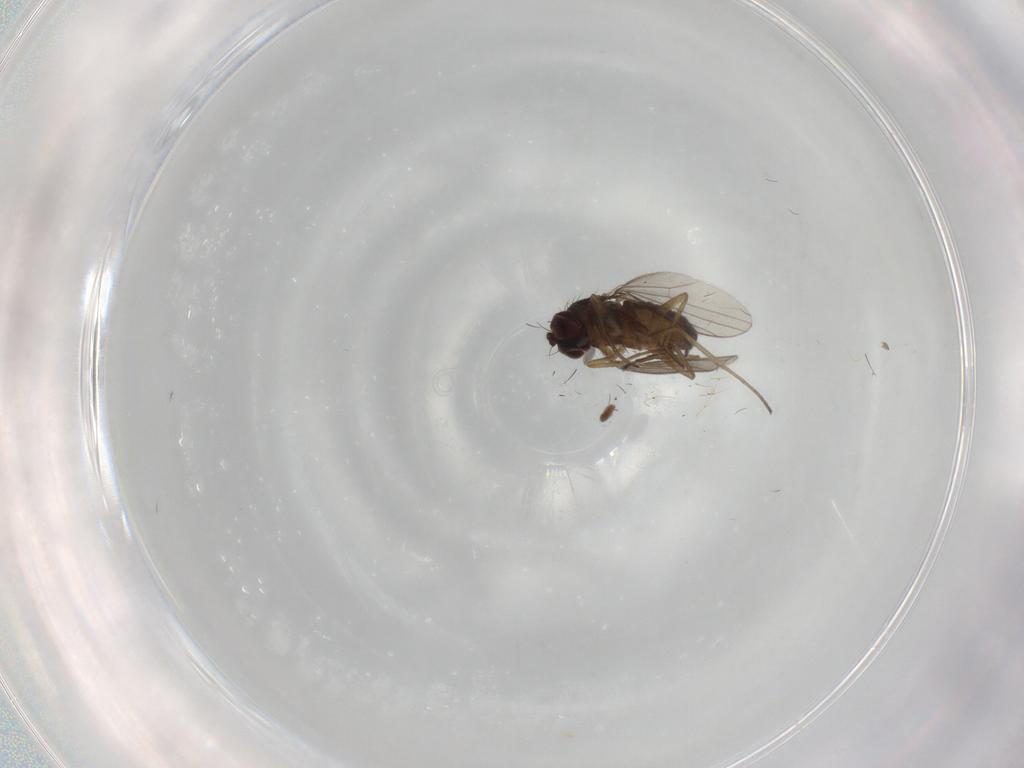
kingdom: Animalia
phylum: Arthropoda
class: Insecta
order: Diptera
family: Dolichopodidae
